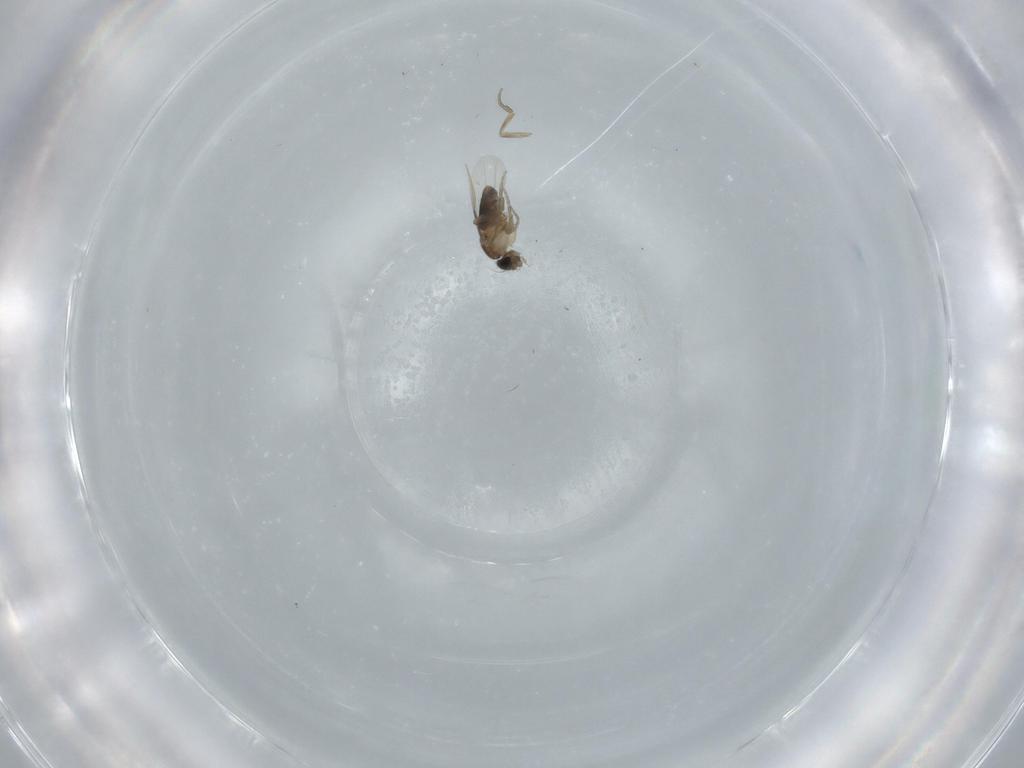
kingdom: Animalia
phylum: Arthropoda
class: Insecta
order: Diptera
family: Phoridae
